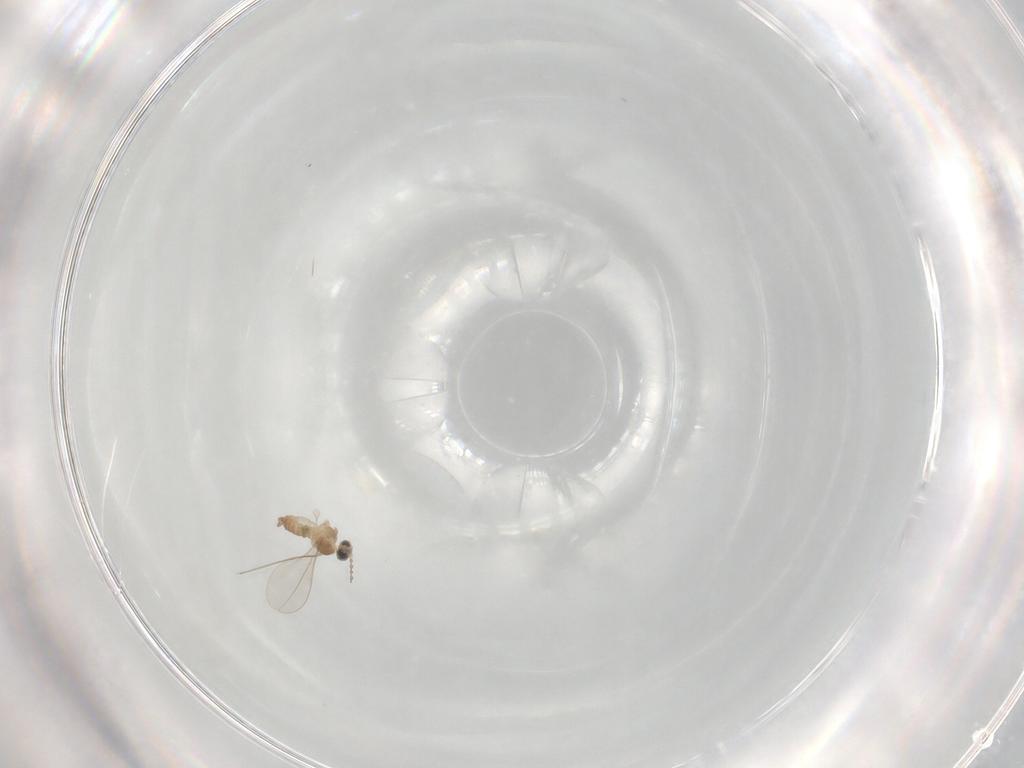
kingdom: Animalia
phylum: Arthropoda
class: Insecta
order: Diptera
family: Cecidomyiidae
